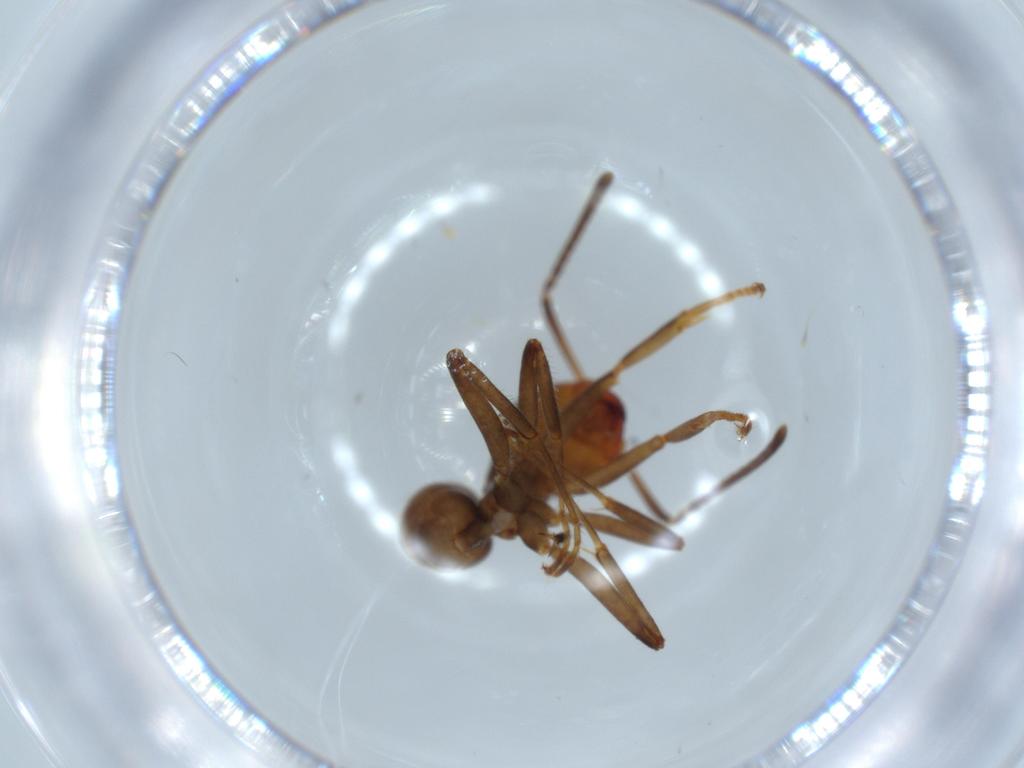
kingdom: Animalia
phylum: Arthropoda
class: Insecta
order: Hymenoptera
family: Formicidae
